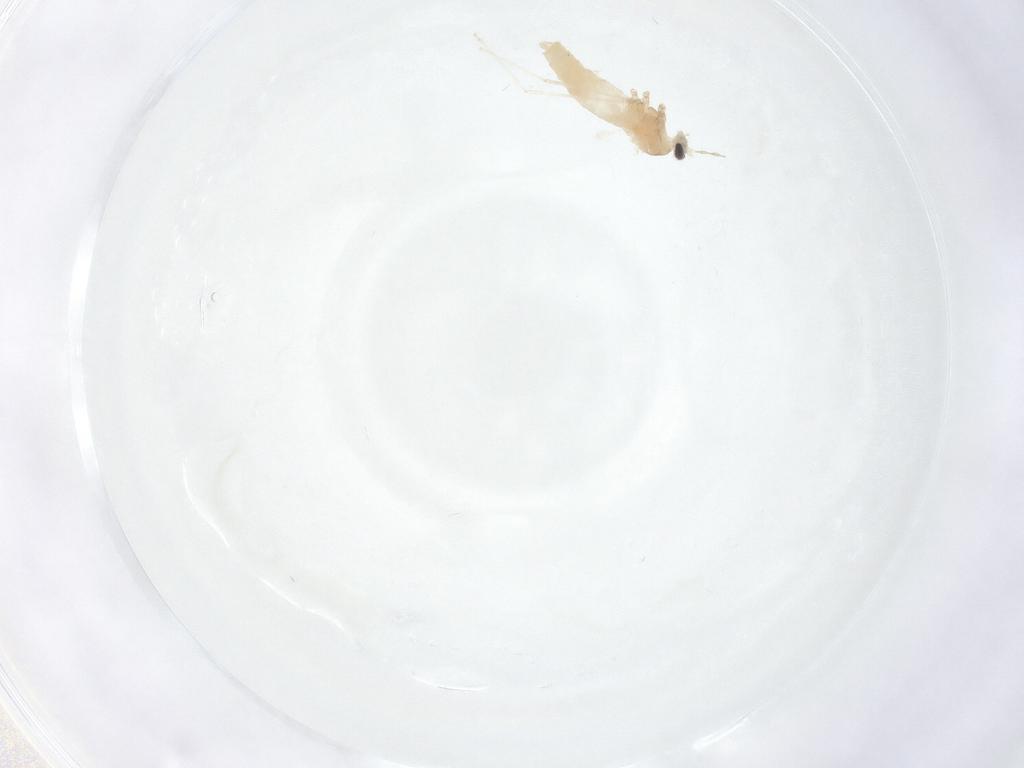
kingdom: Animalia
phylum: Arthropoda
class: Insecta
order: Diptera
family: Cecidomyiidae
